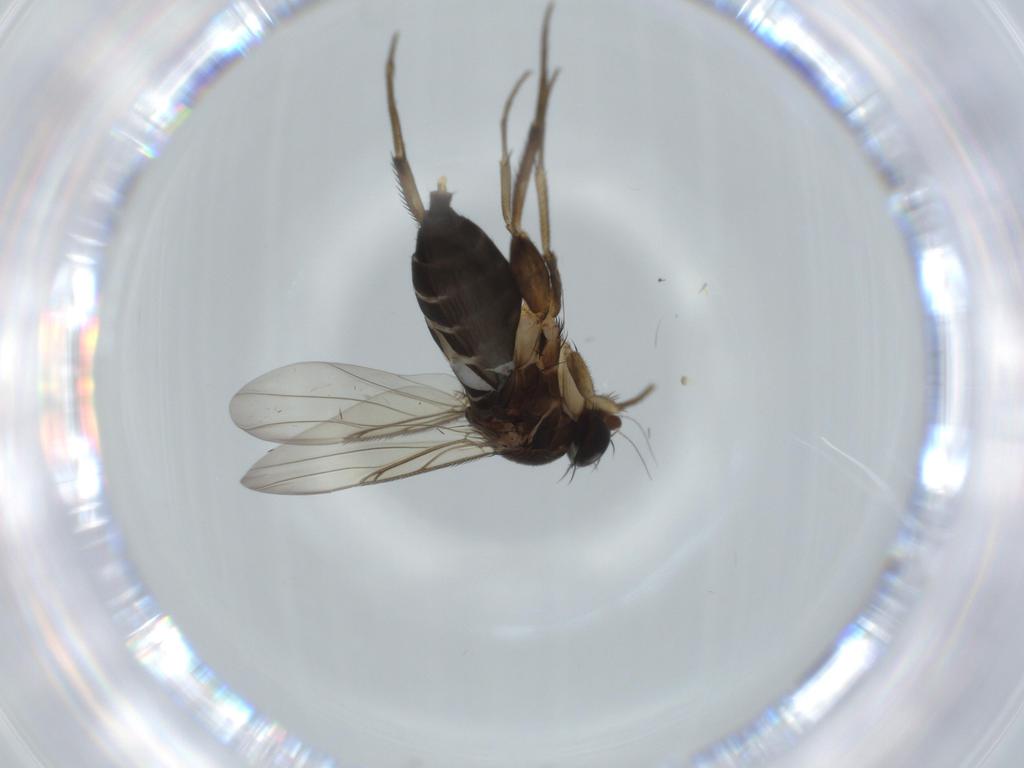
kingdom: Animalia
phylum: Arthropoda
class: Insecta
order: Diptera
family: Phoridae
